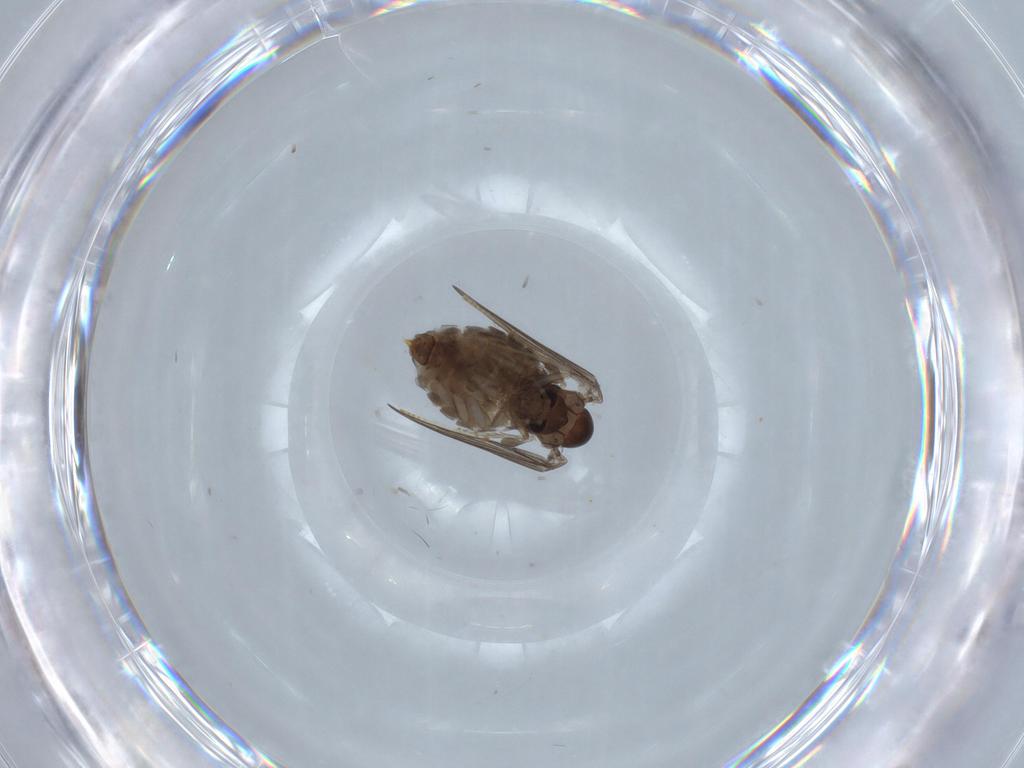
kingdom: Animalia
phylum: Arthropoda
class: Insecta
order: Diptera
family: Psychodidae
